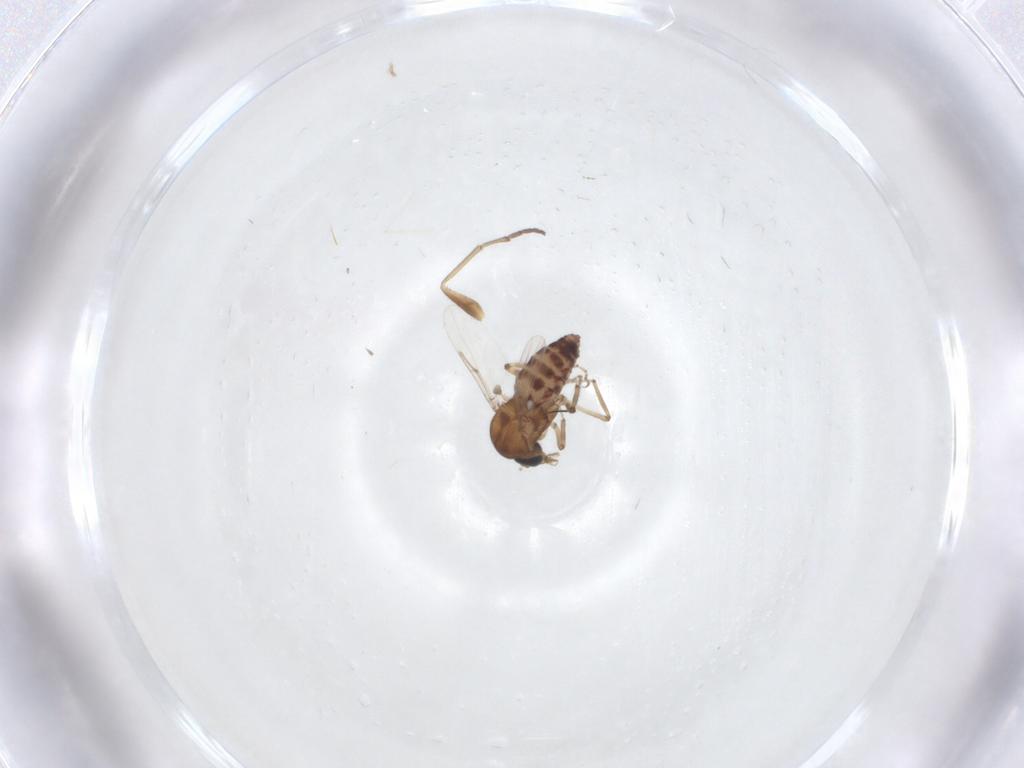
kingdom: Animalia
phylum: Arthropoda
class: Insecta
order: Diptera
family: Ceratopogonidae
